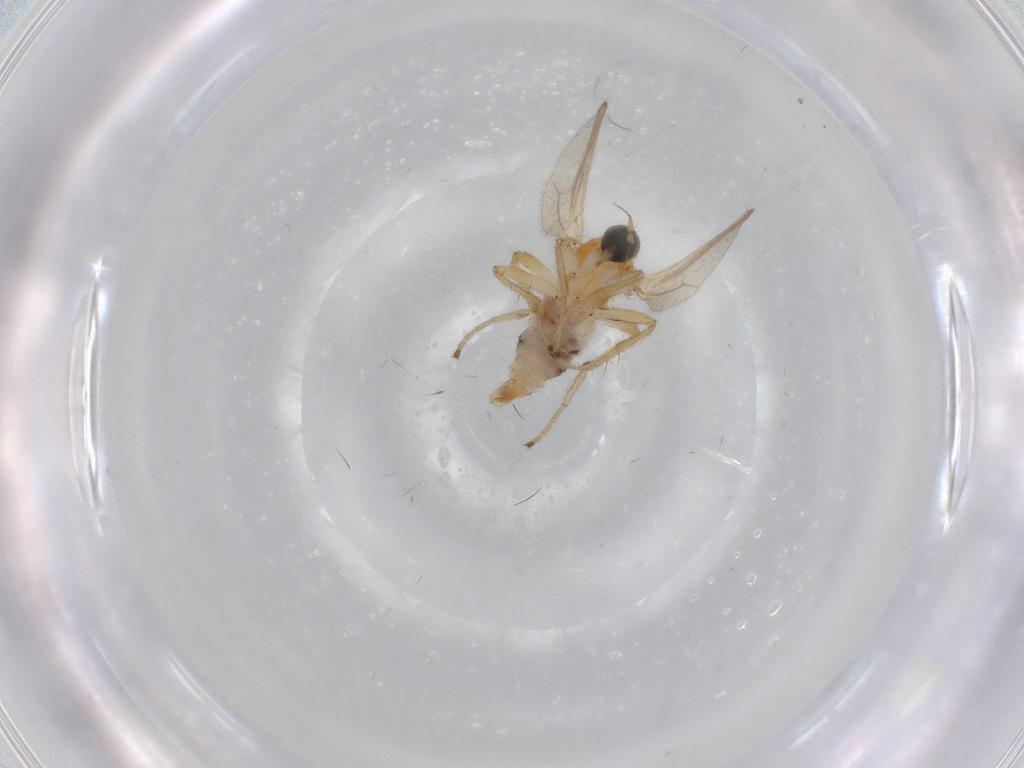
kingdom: Animalia
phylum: Arthropoda
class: Insecta
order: Diptera
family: Hybotidae
